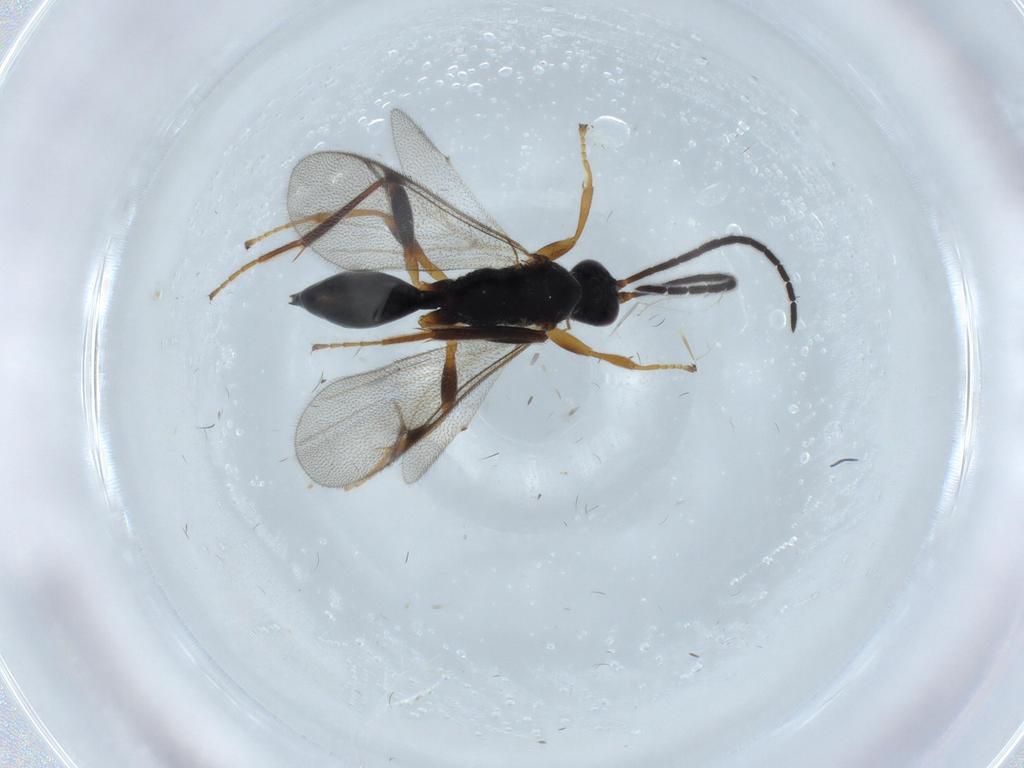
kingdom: Animalia
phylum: Arthropoda
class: Insecta
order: Hymenoptera
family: Proctotrupidae
